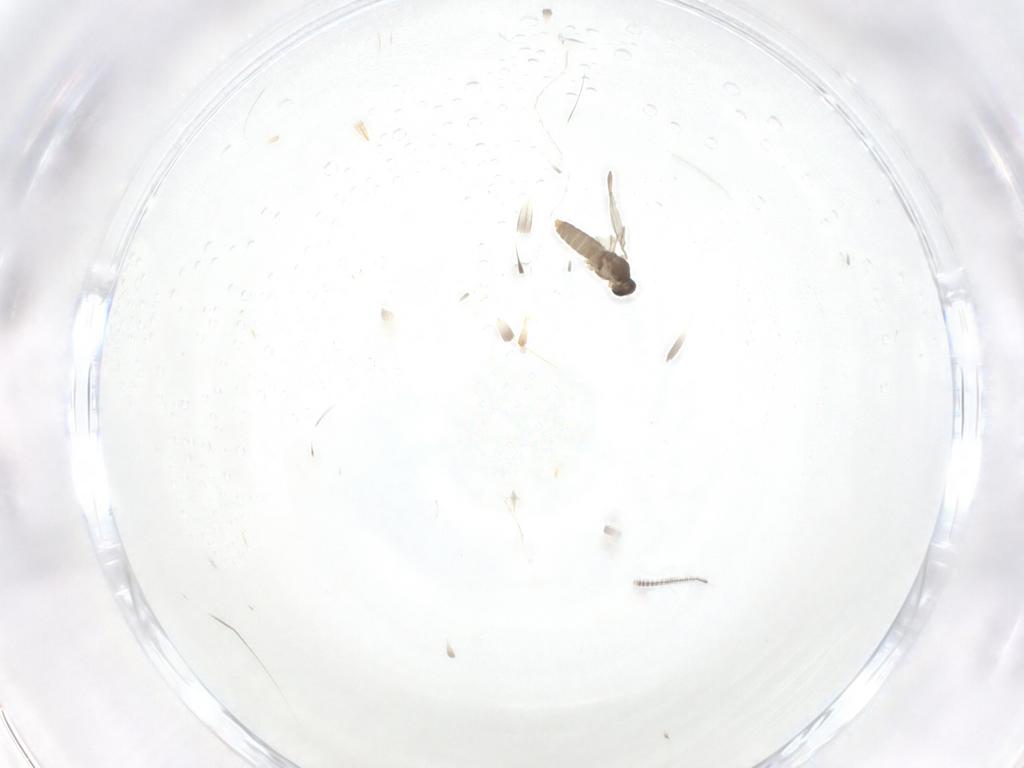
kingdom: Animalia
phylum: Arthropoda
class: Insecta
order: Diptera
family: Cecidomyiidae
